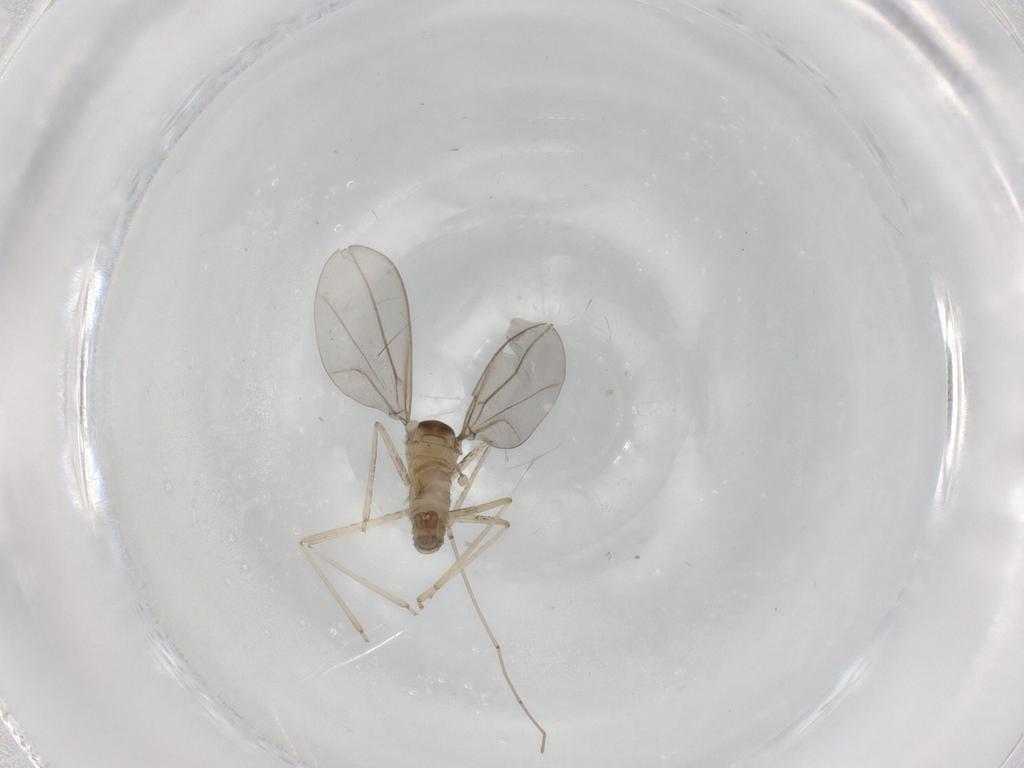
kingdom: Animalia
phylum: Arthropoda
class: Insecta
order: Diptera
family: Cecidomyiidae
